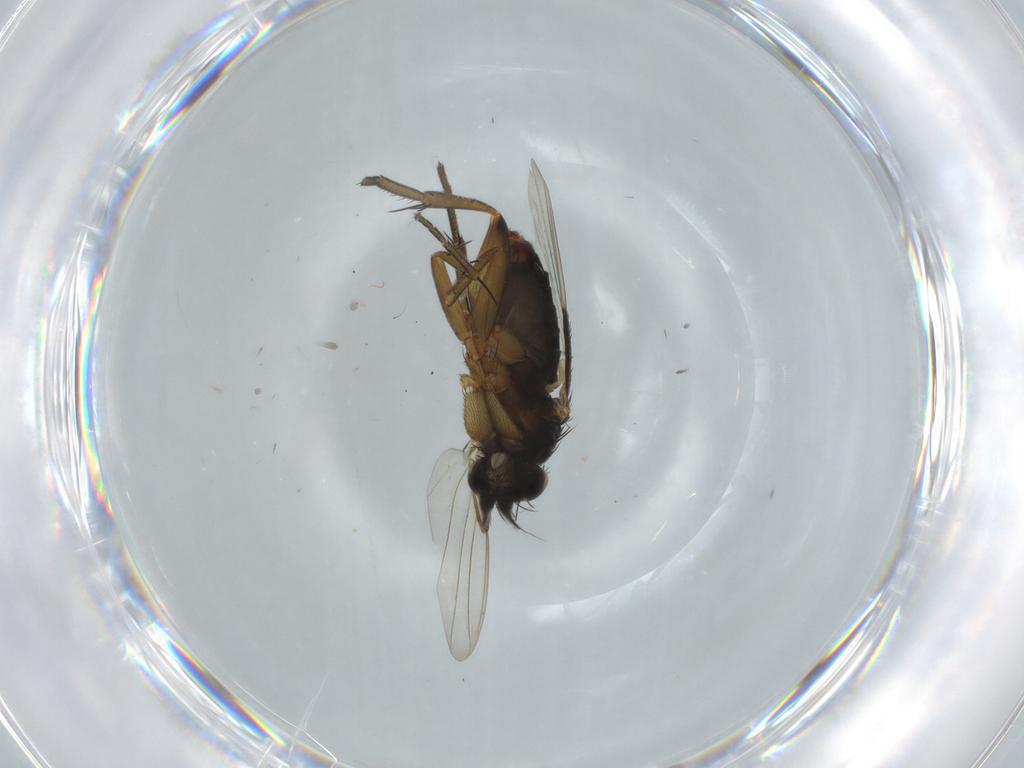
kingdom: Animalia
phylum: Arthropoda
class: Insecta
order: Diptera
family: Phoridae
